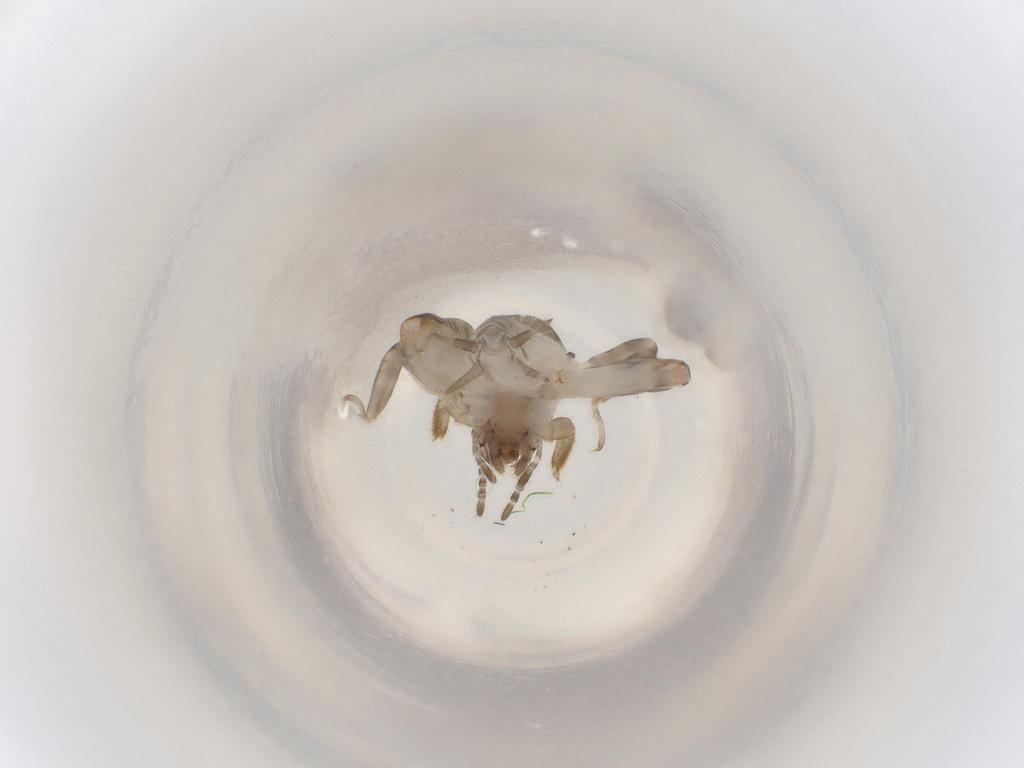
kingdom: Animalia
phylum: Arthropoda
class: Insecta
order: Orthoptera
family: Tetrigidae
